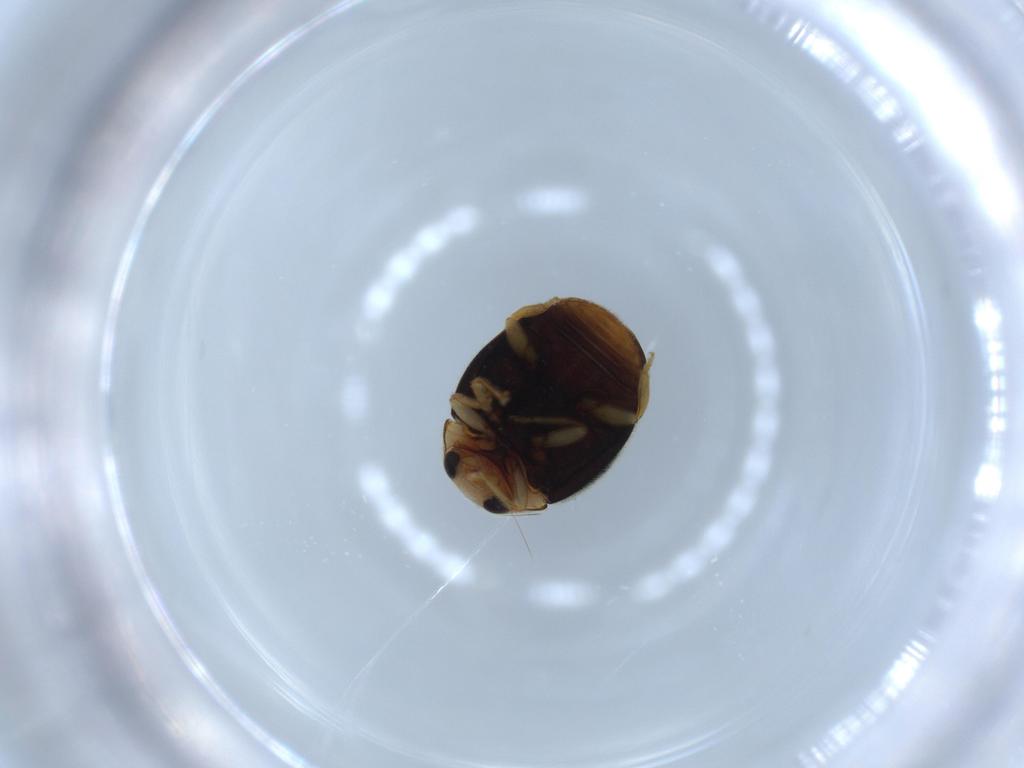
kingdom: Animalia
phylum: Arthropoda
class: Insecta
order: Coleoptera
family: Coccinellidae
